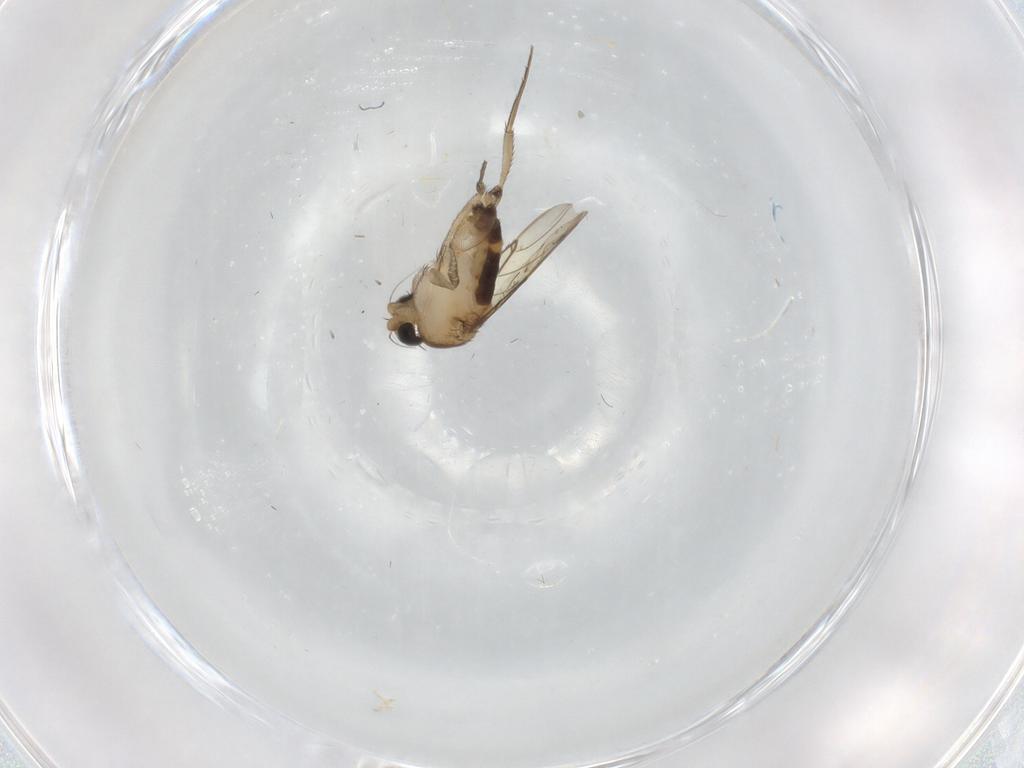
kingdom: Animalia
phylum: Arthropoda
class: Insecta
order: Diptera
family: Phoridae
